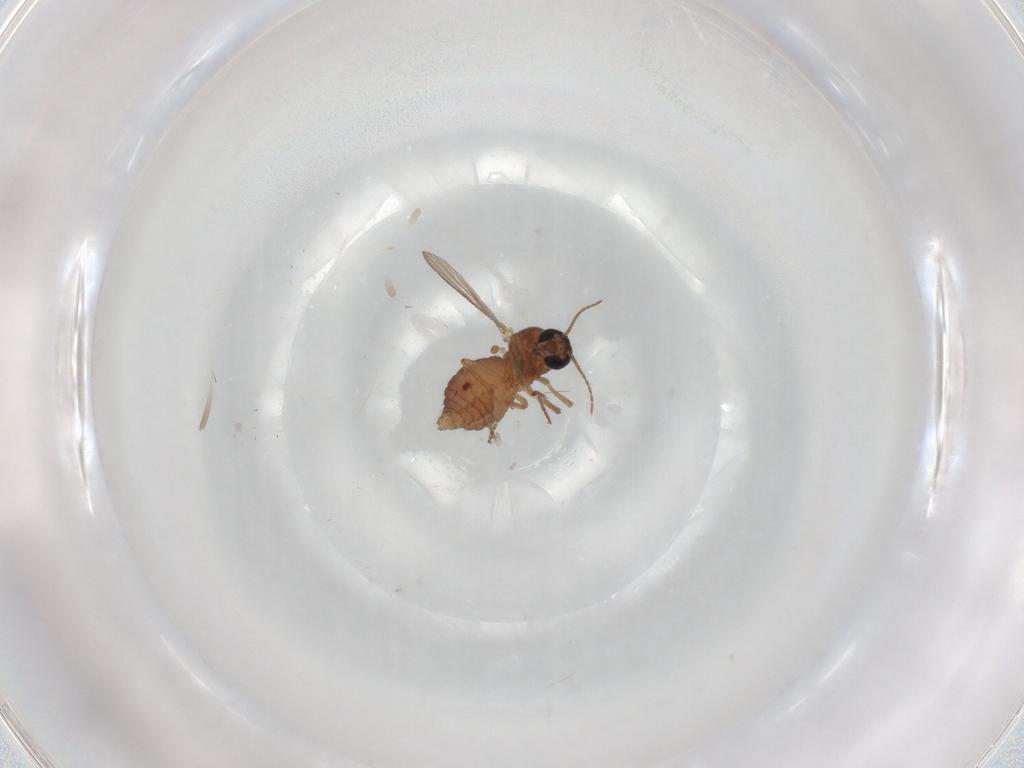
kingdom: Animalia
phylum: Arthropoda
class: Insecta
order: Diptera
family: Ceratopogonidae
